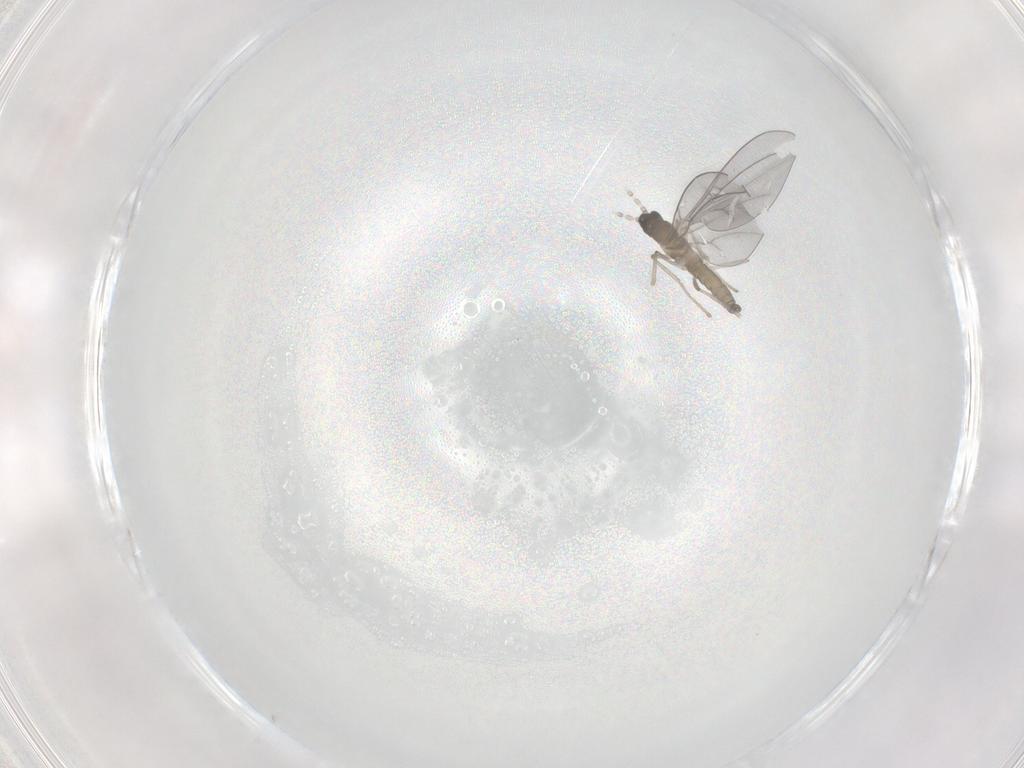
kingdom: Animalia
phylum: Arthropoda
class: Insecta
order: Diptera
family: Cecidomyiidae
